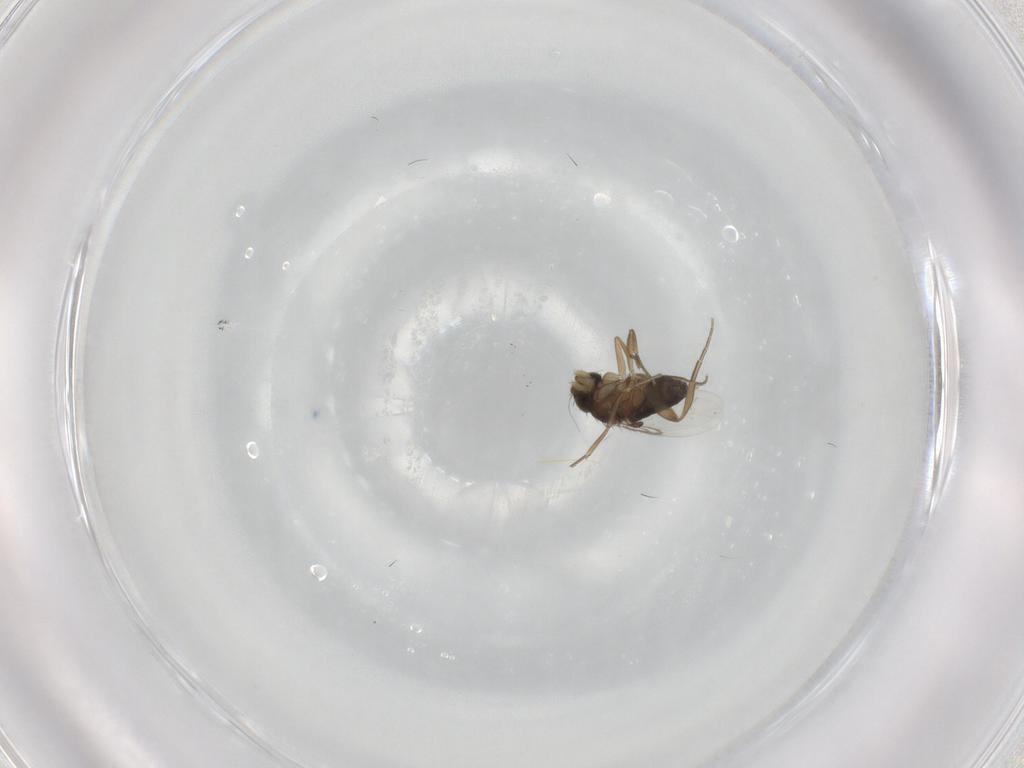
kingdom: Animalia
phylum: Arthropoda
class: Insecta
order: Diptera
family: Phoridae
